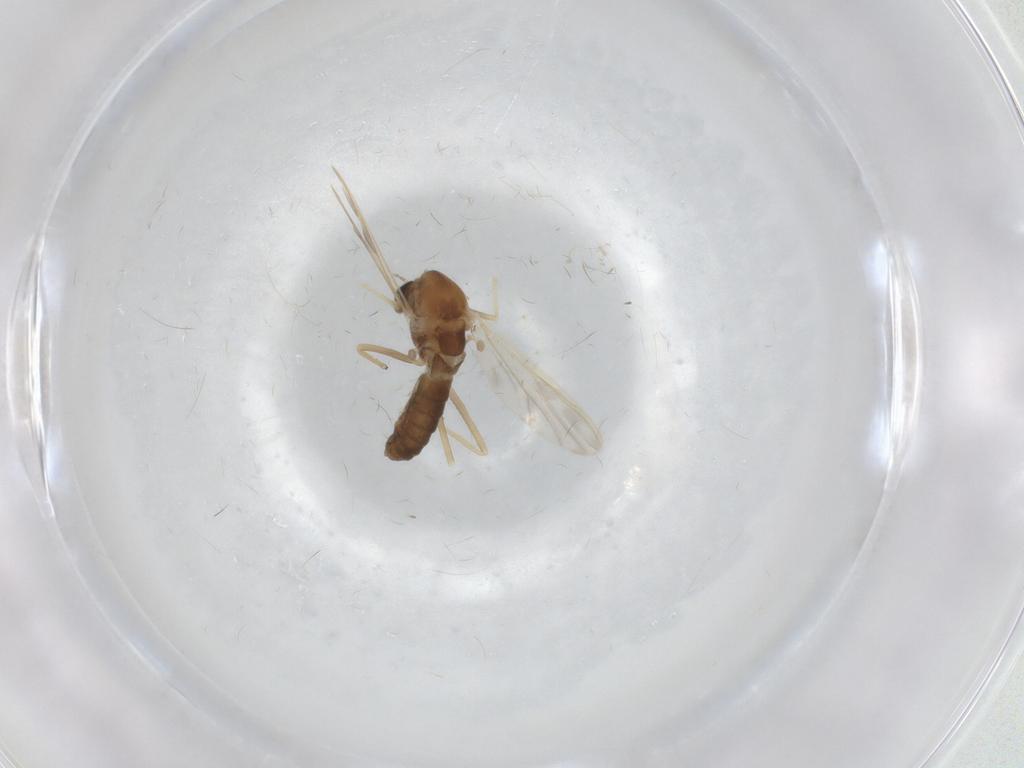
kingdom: Animalia
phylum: Arthropoda
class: Insecta
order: Diptera
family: Chironomidae
